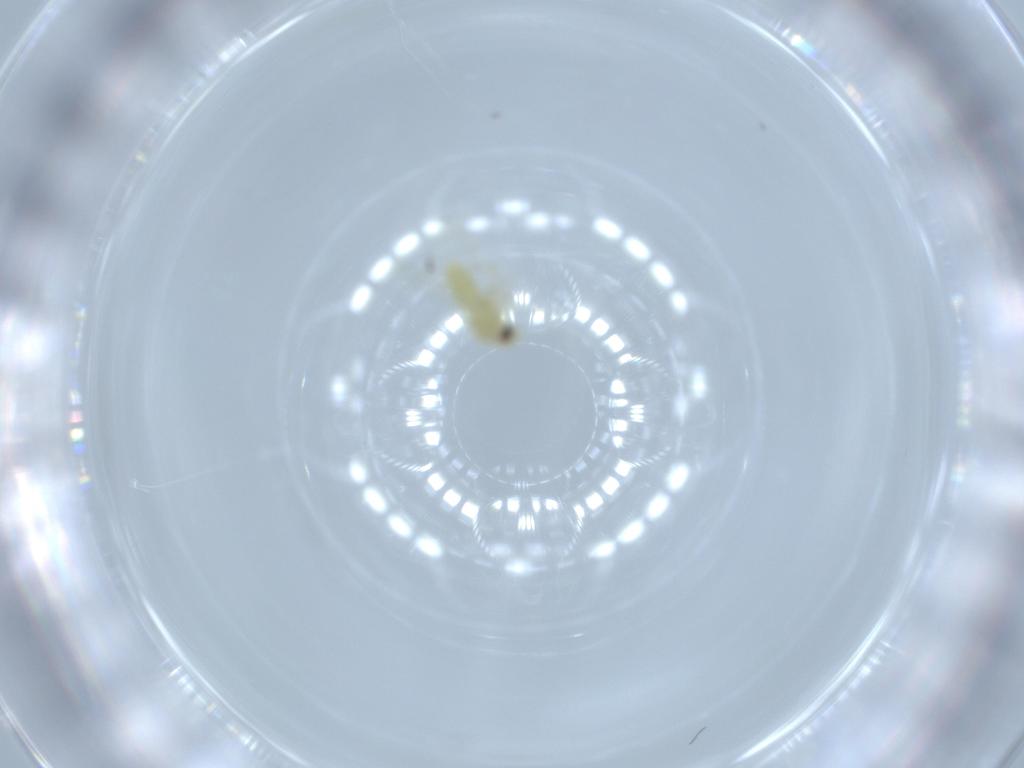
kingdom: Animalia
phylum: Arthropoda
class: Insecta
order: Hemiptera
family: Aleyrodidae
